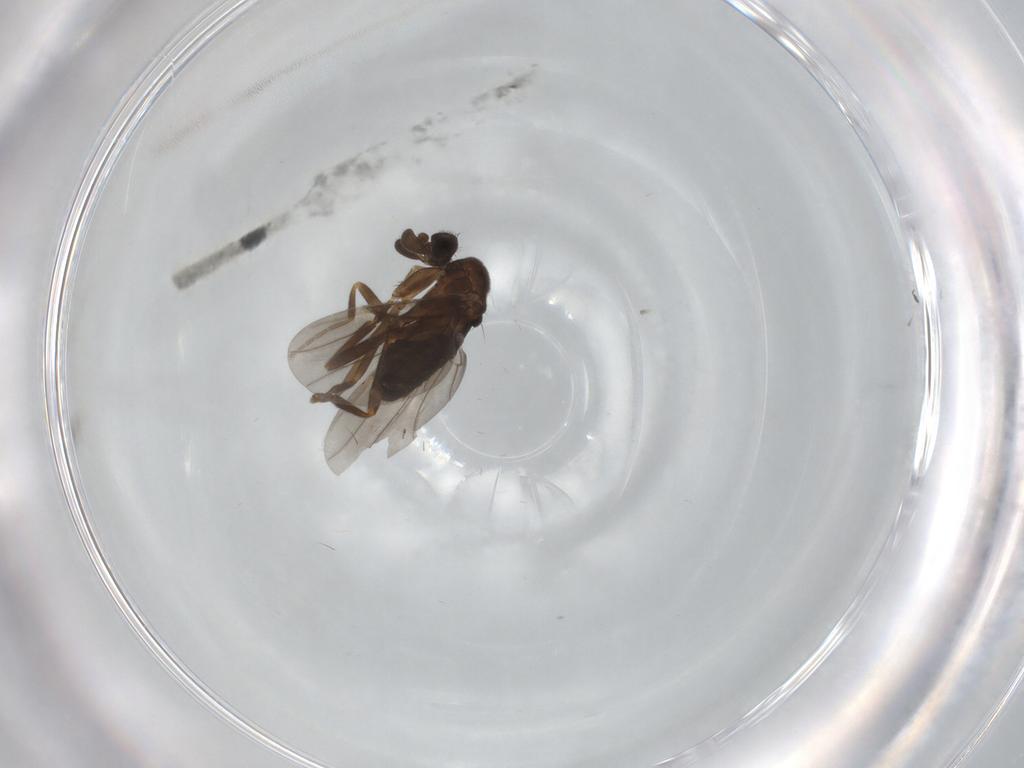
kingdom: Animalia
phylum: Arthropoda
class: Insecta
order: Diptera
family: Phoridae
